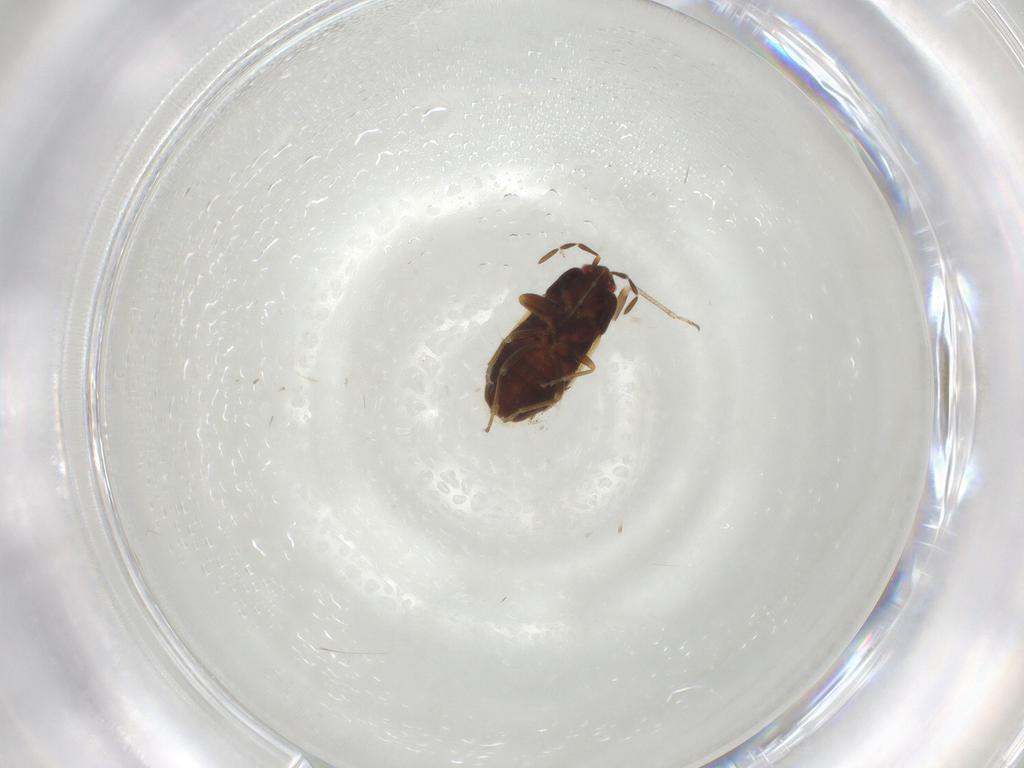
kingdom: Animalia
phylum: Arthropoda
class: Insecta
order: Hemiptera
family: Rhyparochromidae
